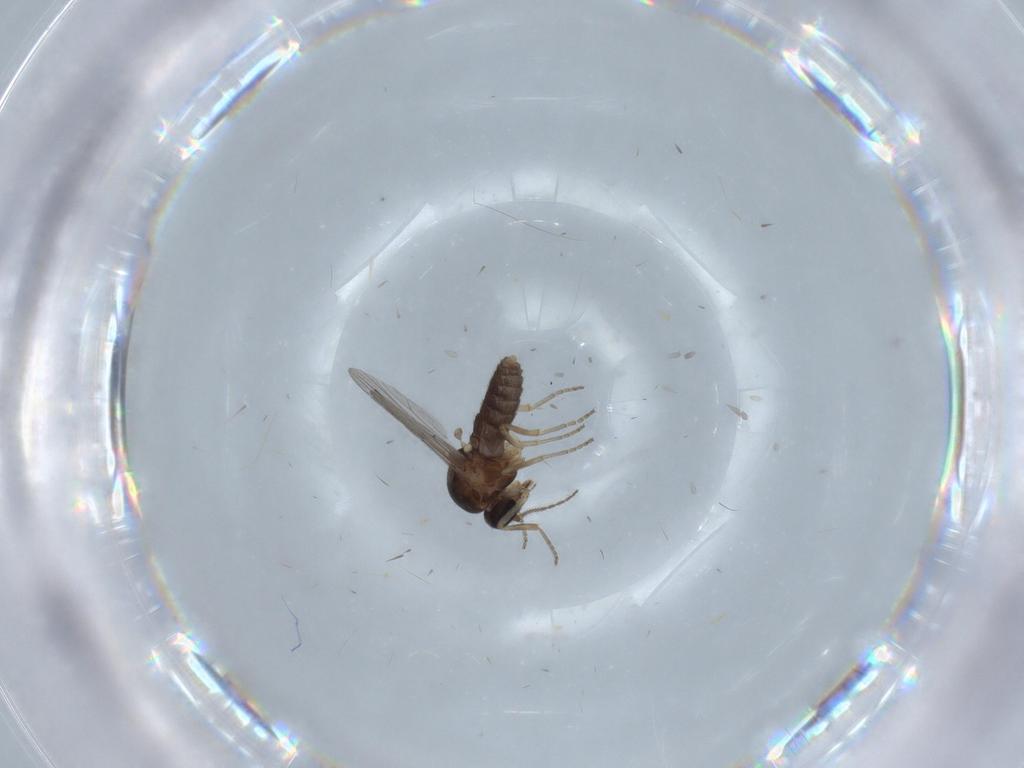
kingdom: Animalia
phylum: Arthropoda
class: Insecta
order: Diptera
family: Ceratopogonidae
